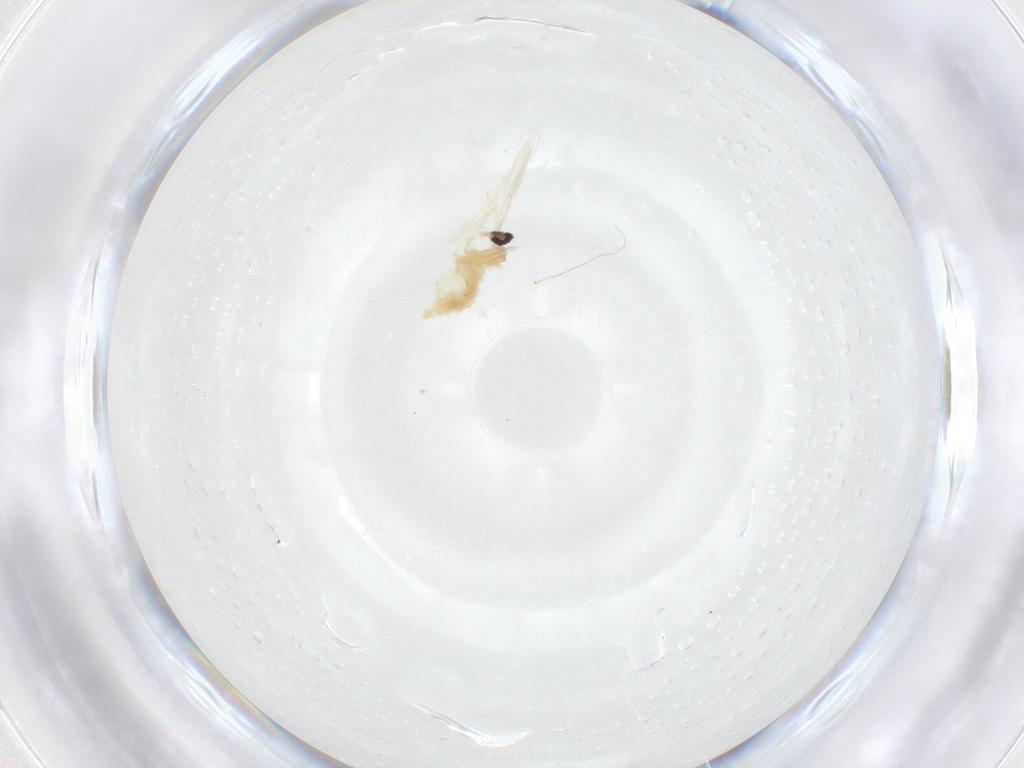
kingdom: Animalia
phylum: Arthropoda
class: Insecta
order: Diptera
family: Cecidomyiidae
